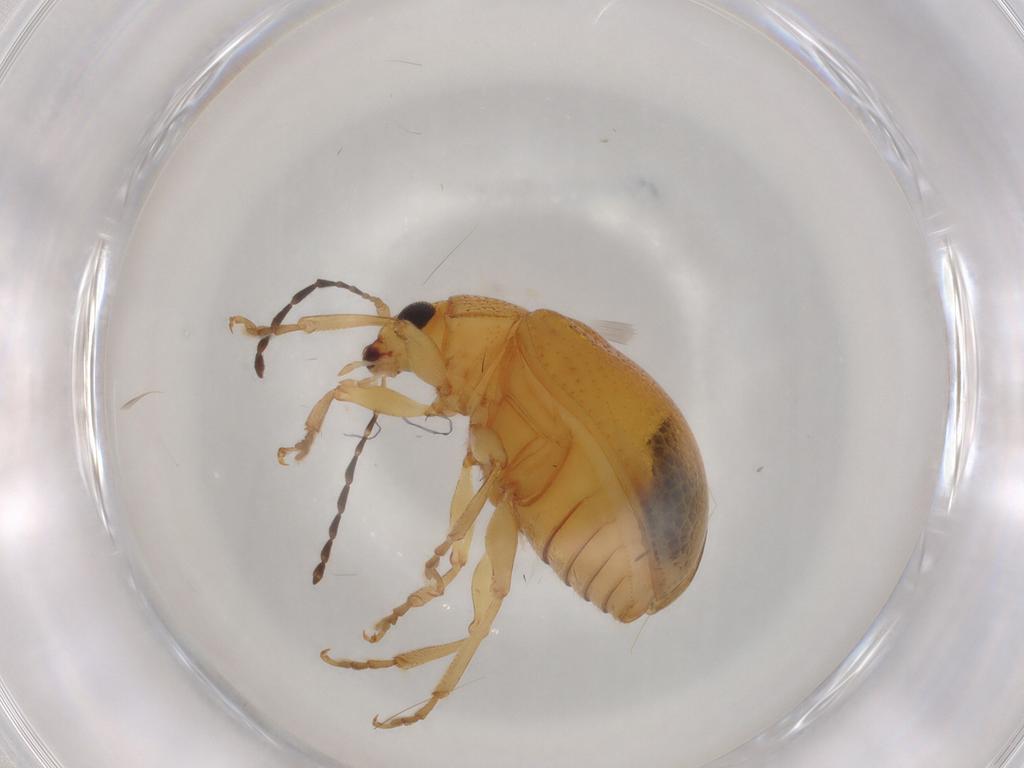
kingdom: Animalia
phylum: Arthropoda
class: Insecta
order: Coleoptera
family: Chrysomelidae
